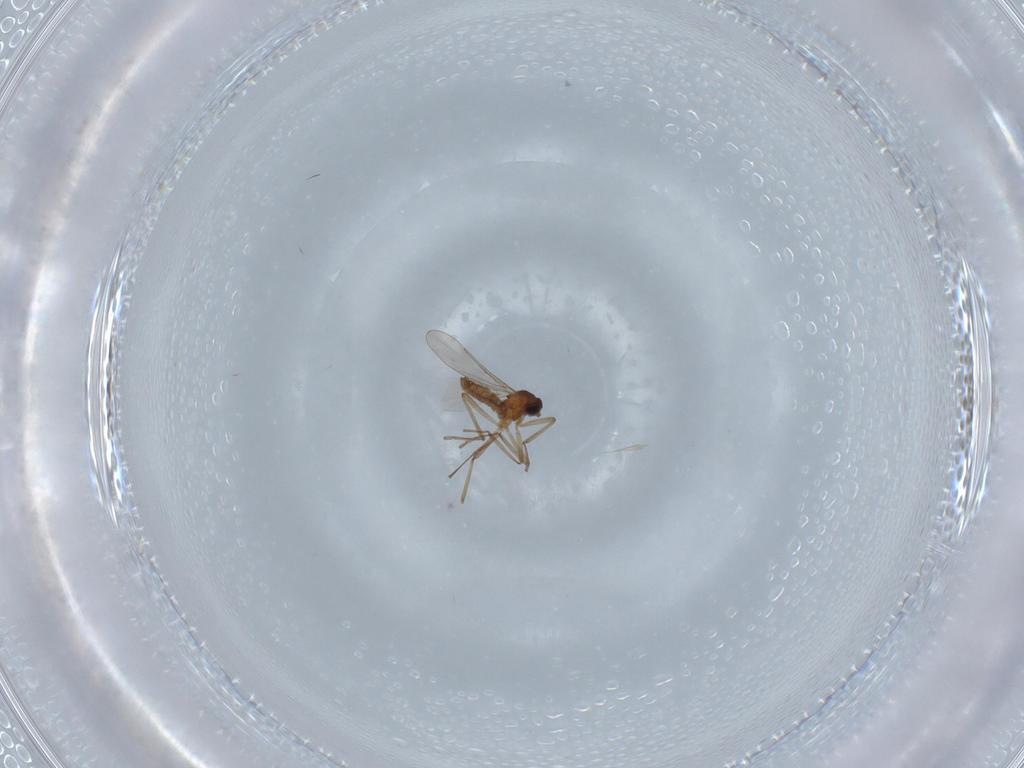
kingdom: Animalia
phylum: Arthropoda
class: Insecta
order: Diptera
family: Cecidomyiidae
